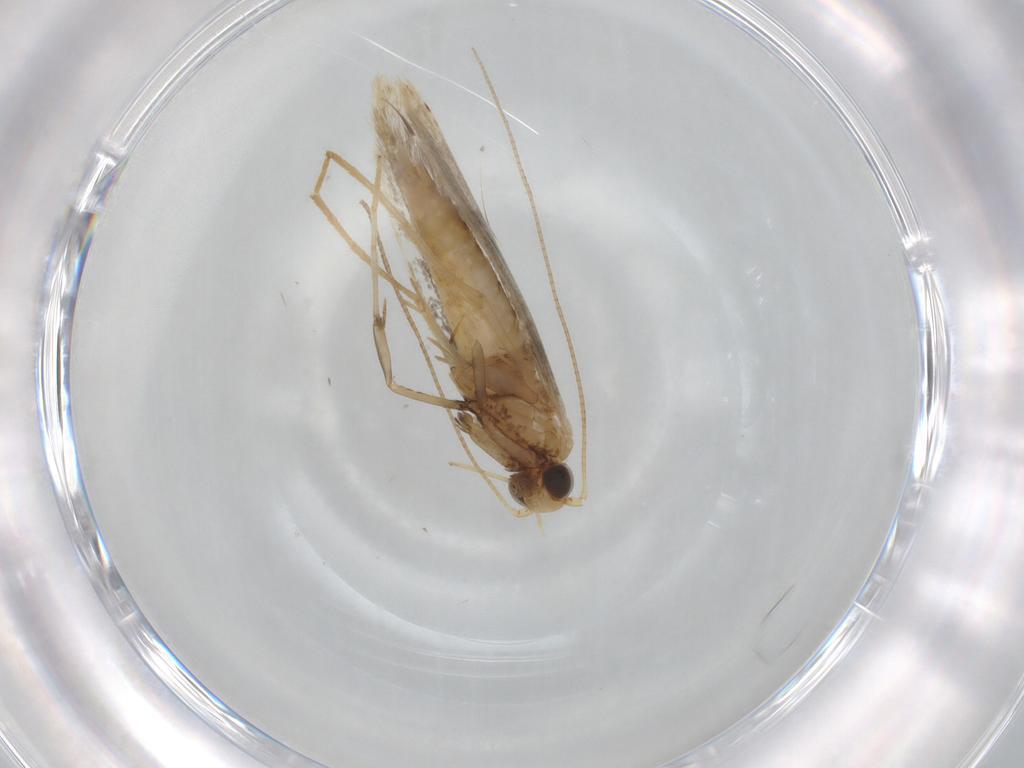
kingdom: Animalia
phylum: Arthropoda
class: Insecta
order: Lepidoptera
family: Gracillariidae
